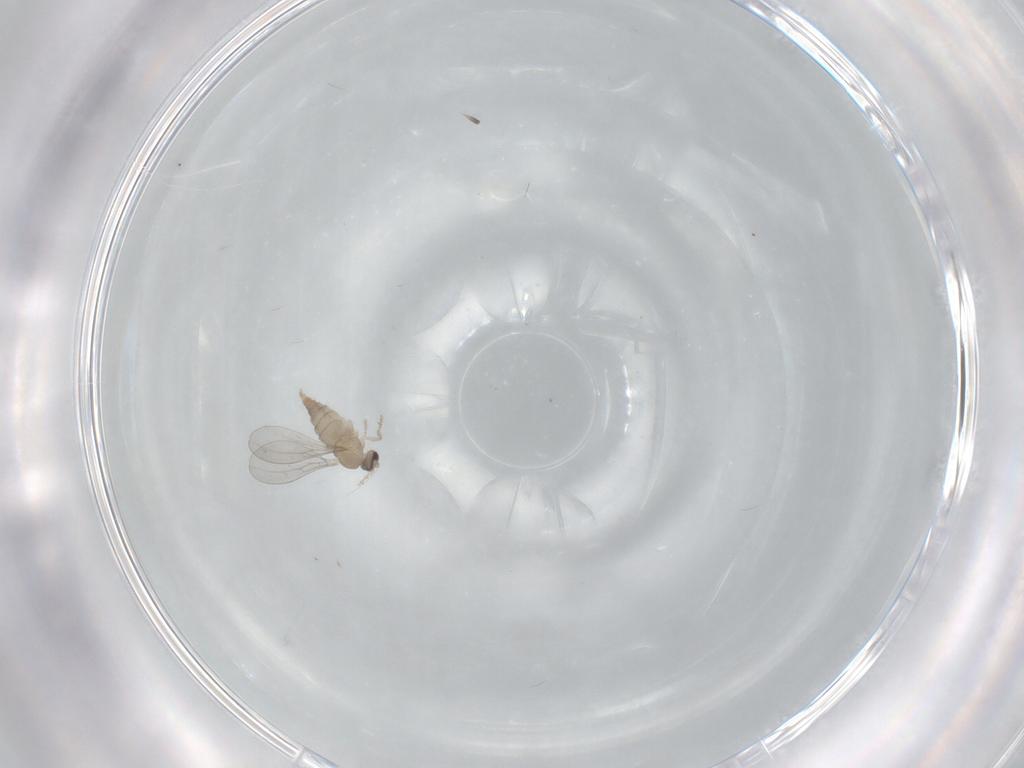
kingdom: Animalia
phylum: Arthropoda
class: Insecta
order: Diptera
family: Cecidomyiidae
